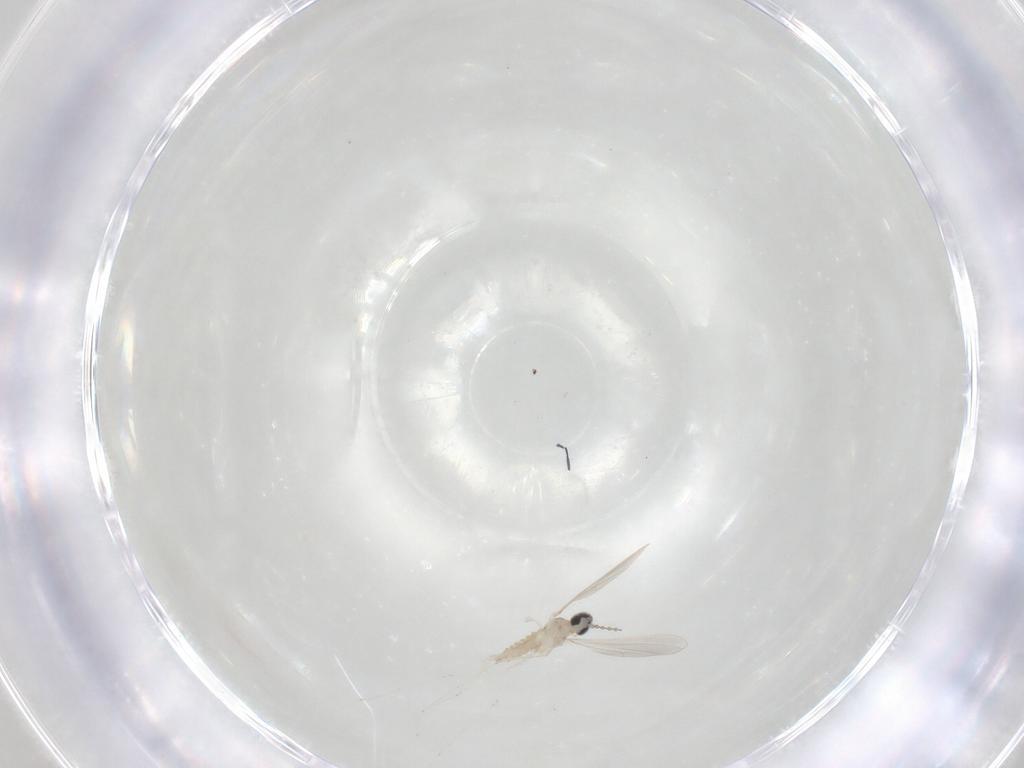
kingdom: Animalia
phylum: Arthropoda
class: Insecta
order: Diptera
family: Cecidomyiidae
